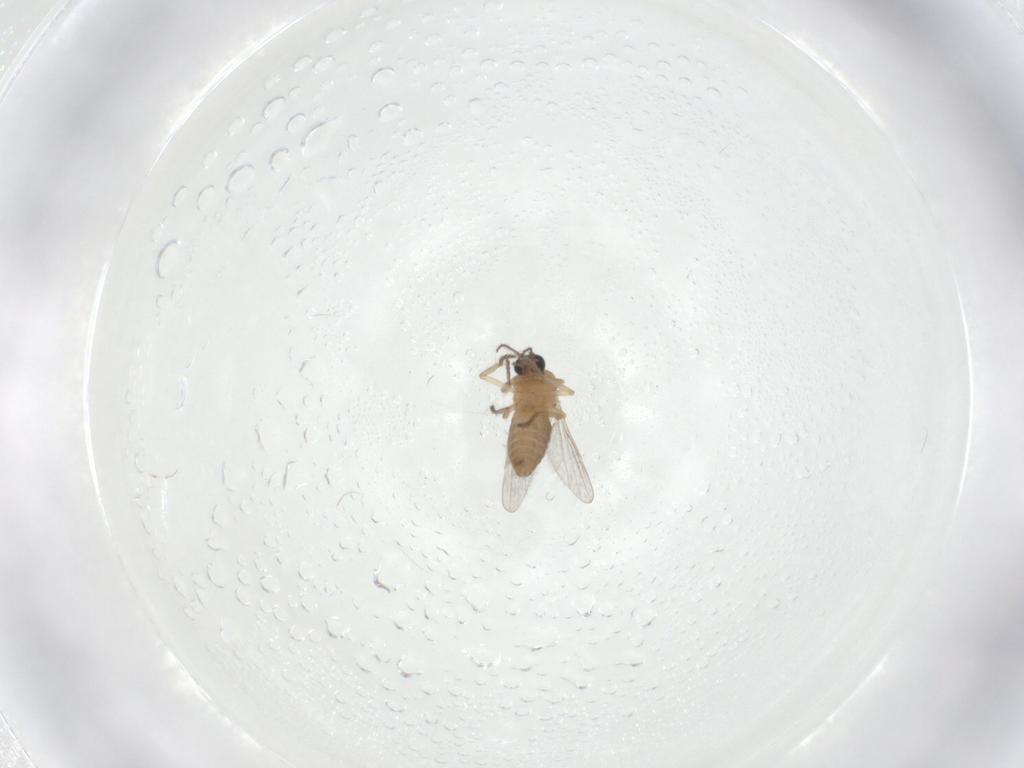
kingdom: Animalia
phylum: Arthropoda
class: Insecta
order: Diptera
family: Ceratopogonidae
